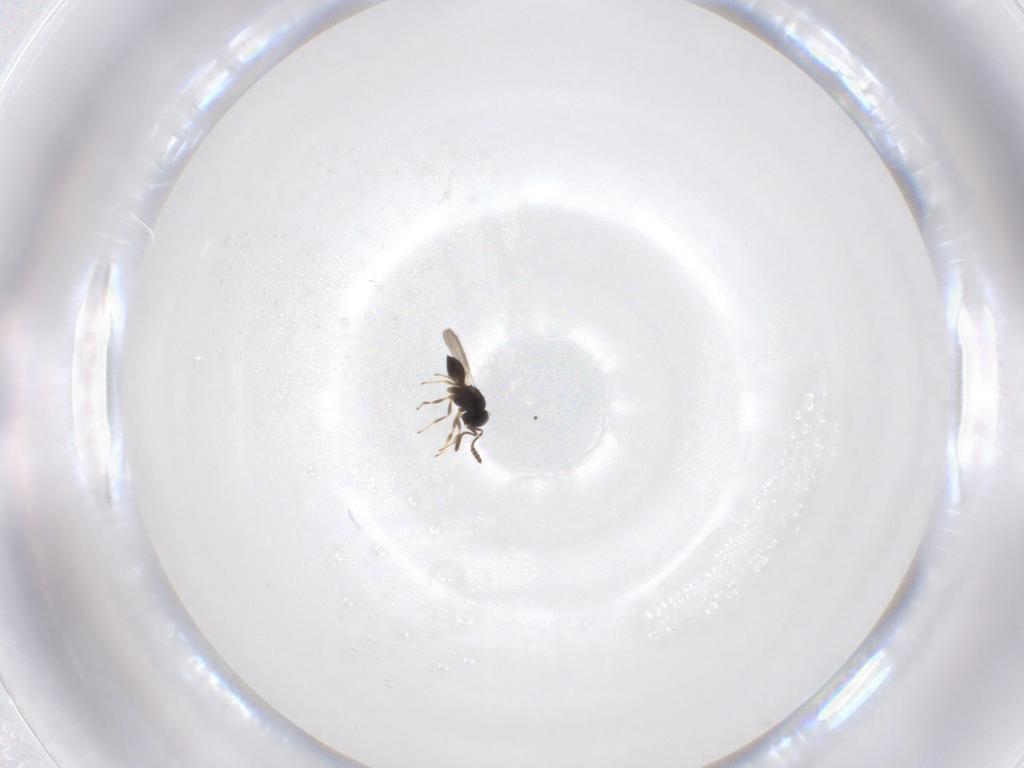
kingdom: Animalia
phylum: Arthropoda
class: Insecta
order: Hymenoptera
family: Scelionidae
